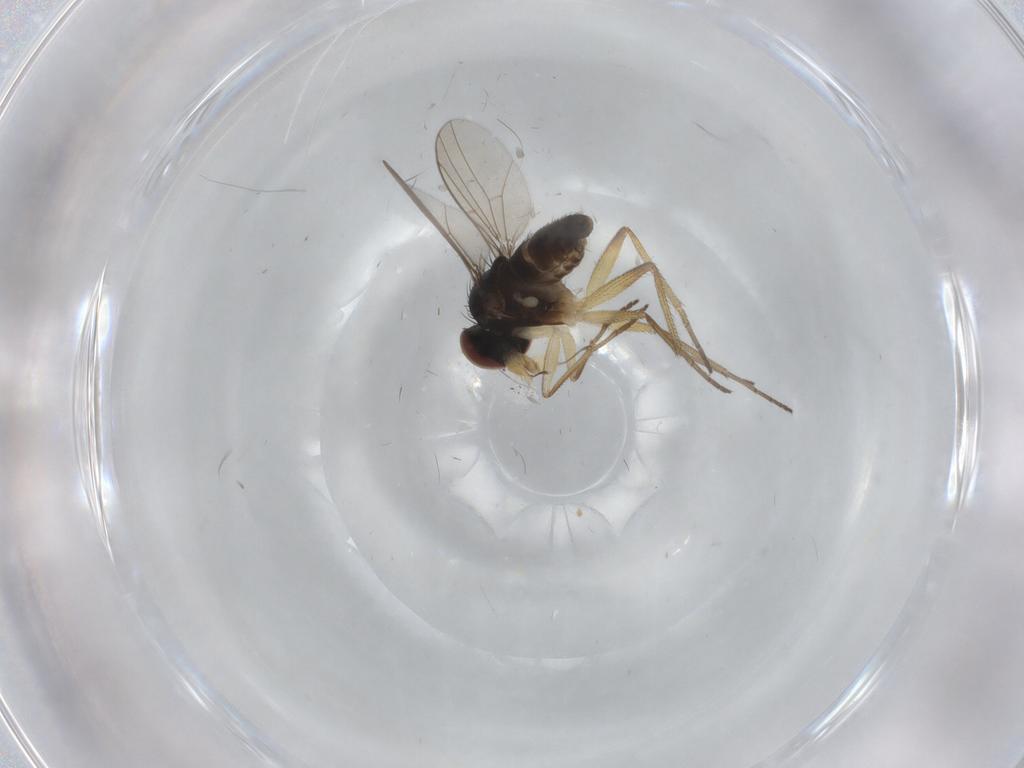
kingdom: Animalia
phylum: Arthropoda
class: Insecta
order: Diptera
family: Dolichopodidae
